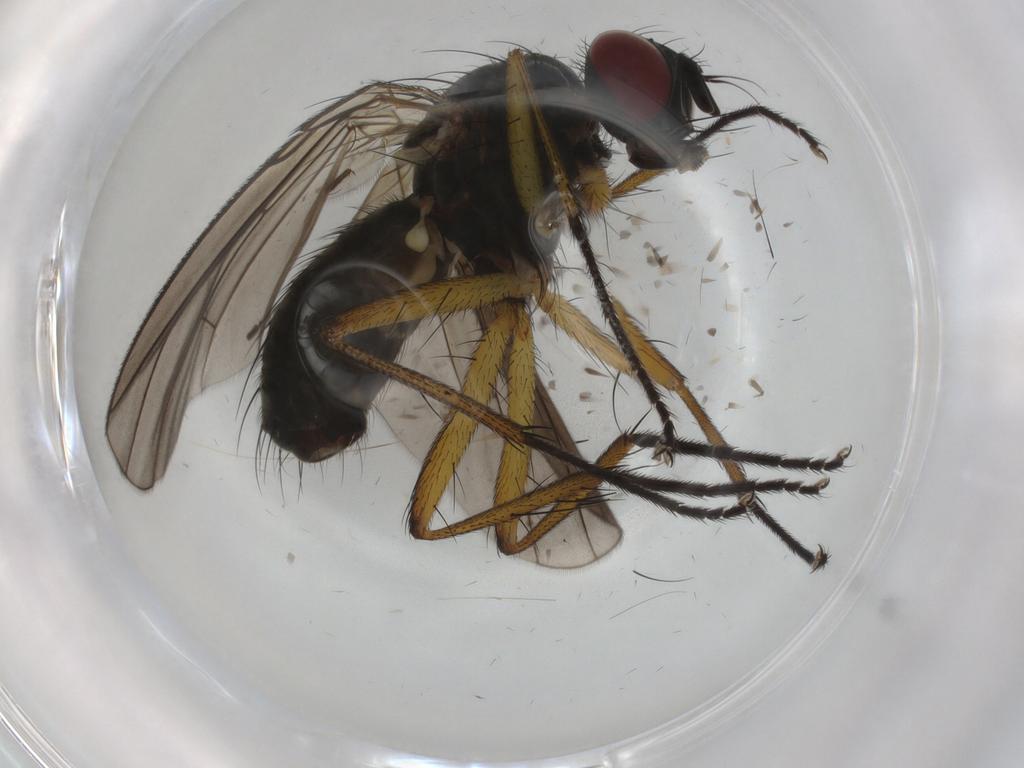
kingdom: Animalia
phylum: Arthropoda
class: Insecta
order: Diptera
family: Muscidae
